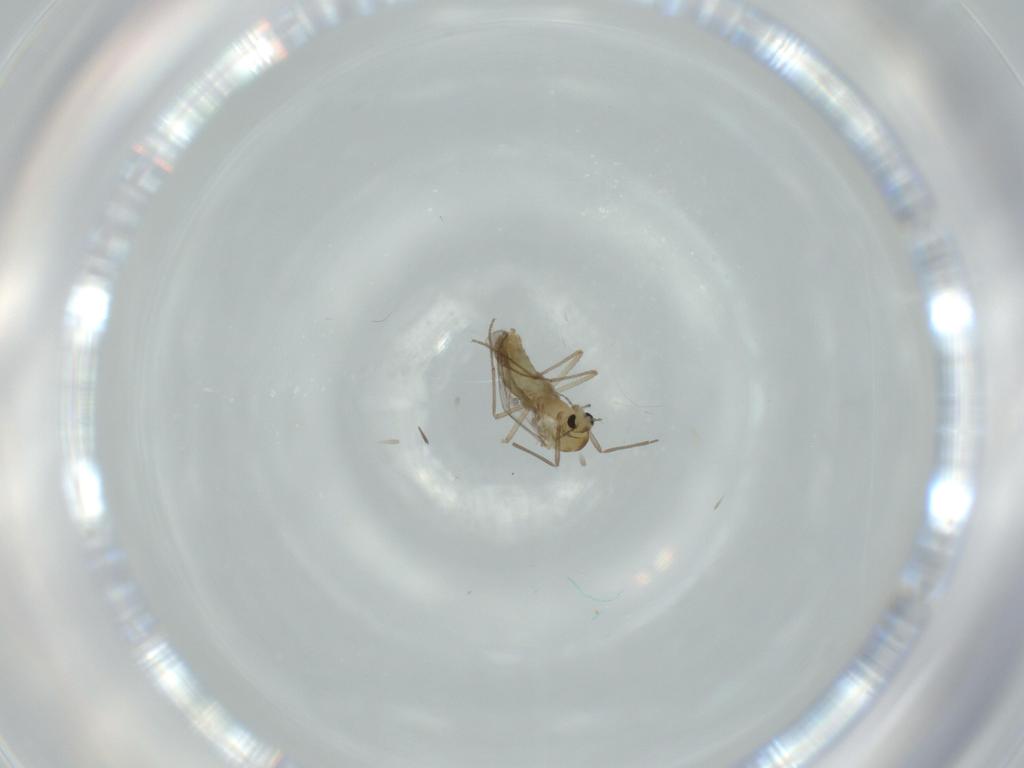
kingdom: Animalia
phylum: Arthropoda
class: Insecta
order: Diptera
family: Chironomidae
